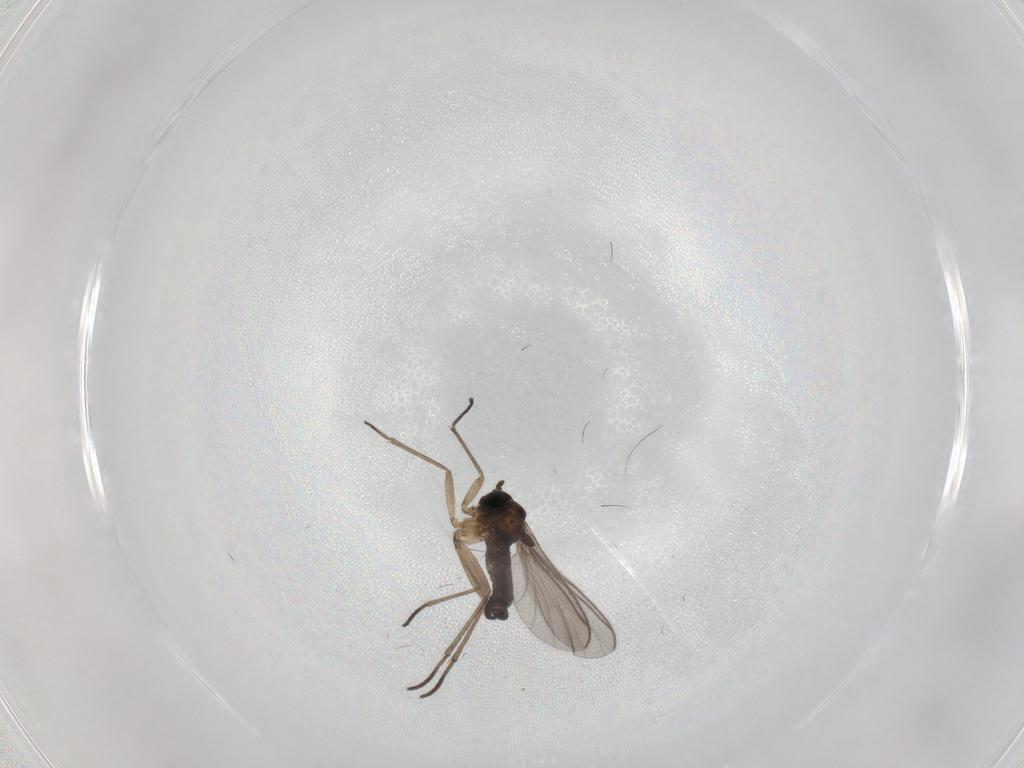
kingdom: Animalia
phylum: Arthropoda
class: Insecta
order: Diptera
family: Sciaridae
